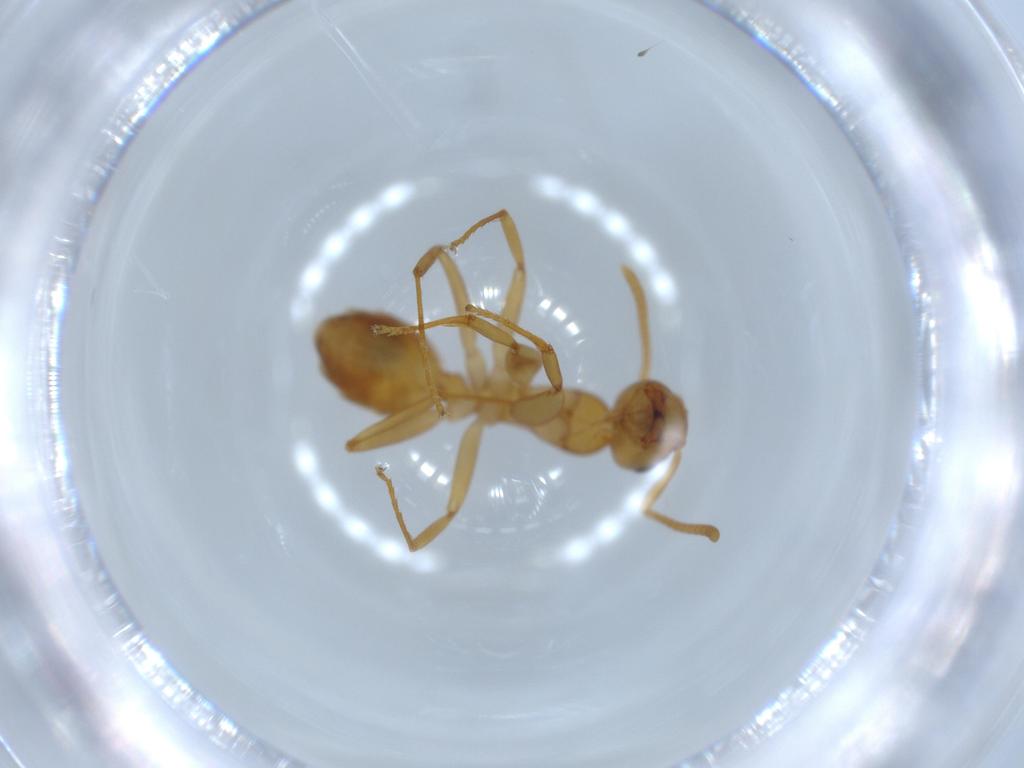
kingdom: Animalia
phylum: Arthropoda
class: Insecta
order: Hymenoptera
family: Formicidae
